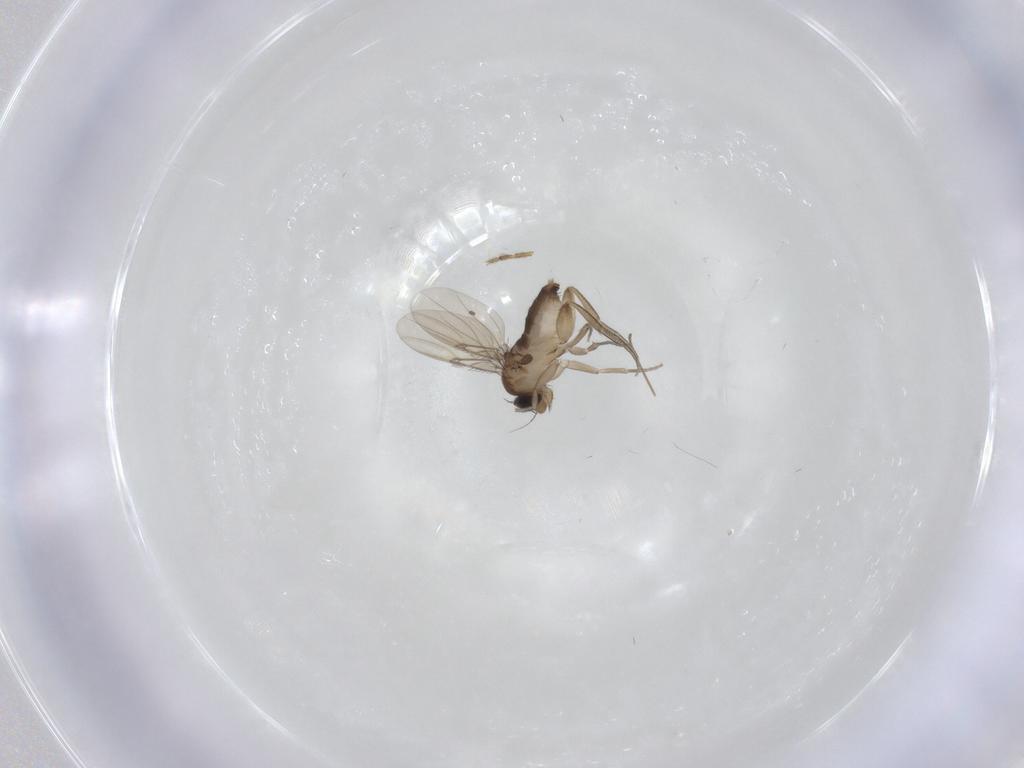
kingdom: Animalia
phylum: Arthropoda
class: Insecta
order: Diptera
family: Phoridae
